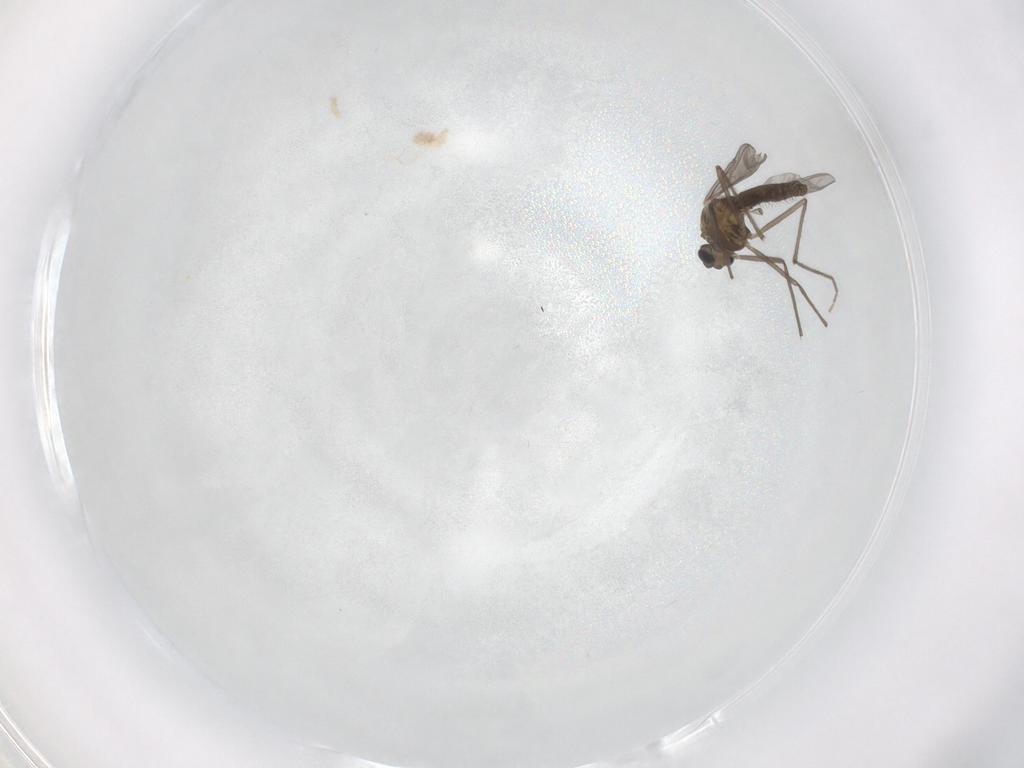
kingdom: Animalia
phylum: Arthropoda
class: Insecta
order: Diptera
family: Chironomidae
